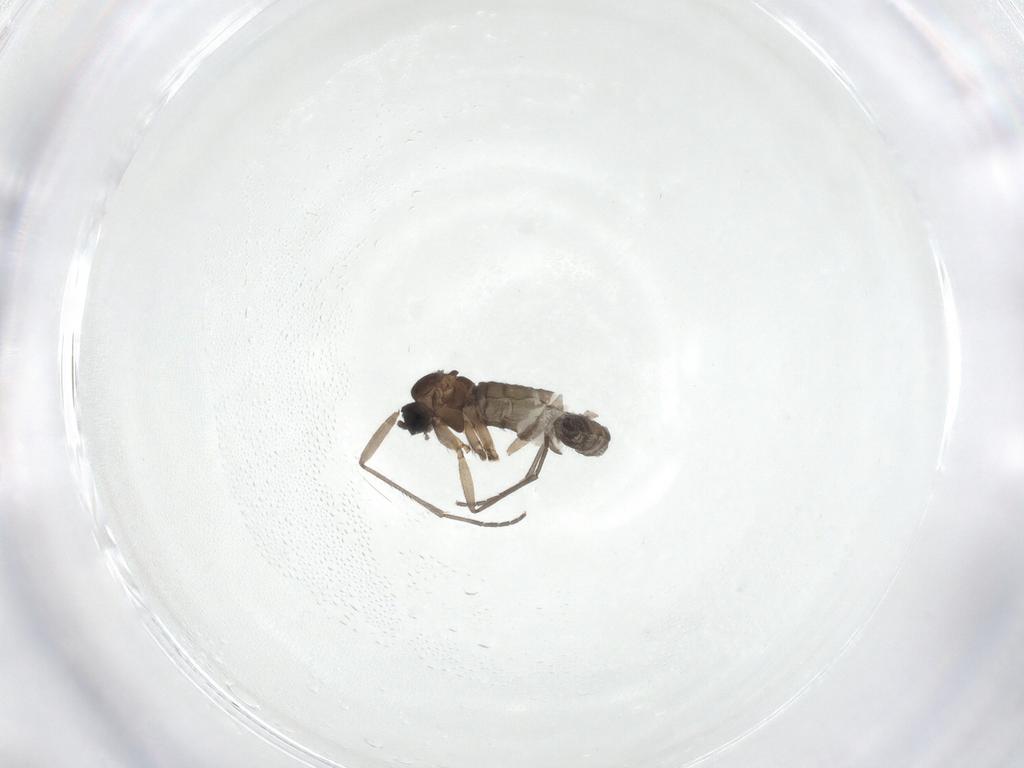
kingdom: Animalia
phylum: Arthropoda
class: Insecta
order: Diptera
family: Sciaridae
